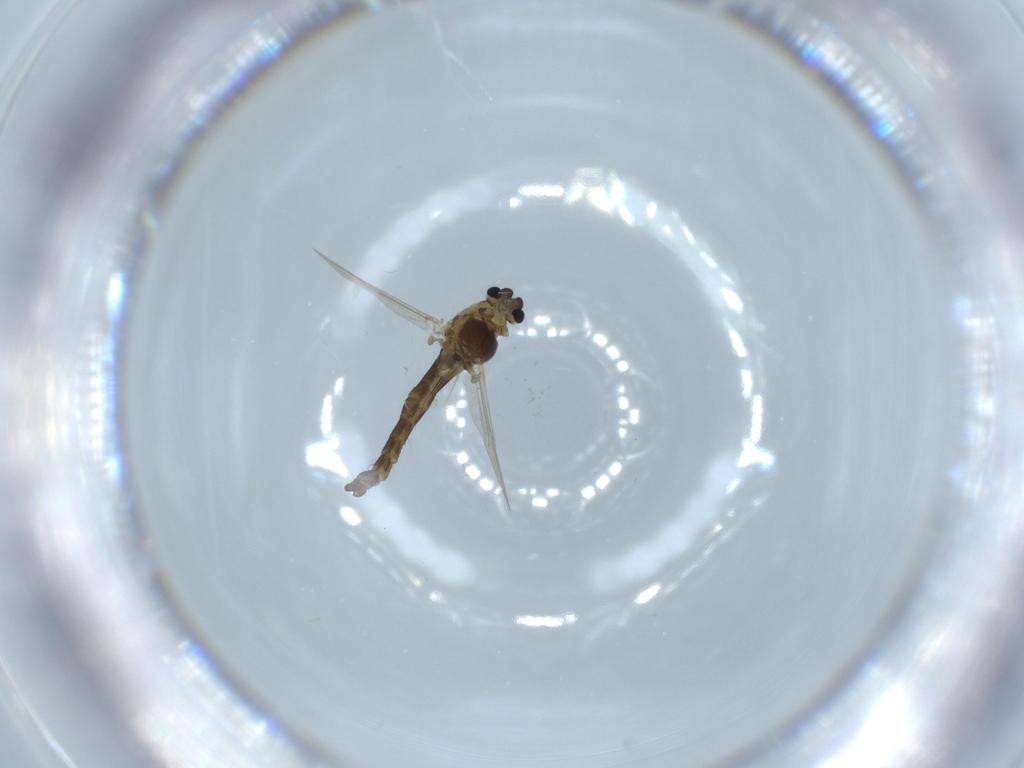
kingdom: Animalia
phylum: Arthropoda
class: Insecta
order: Diptera
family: Chironomidae
